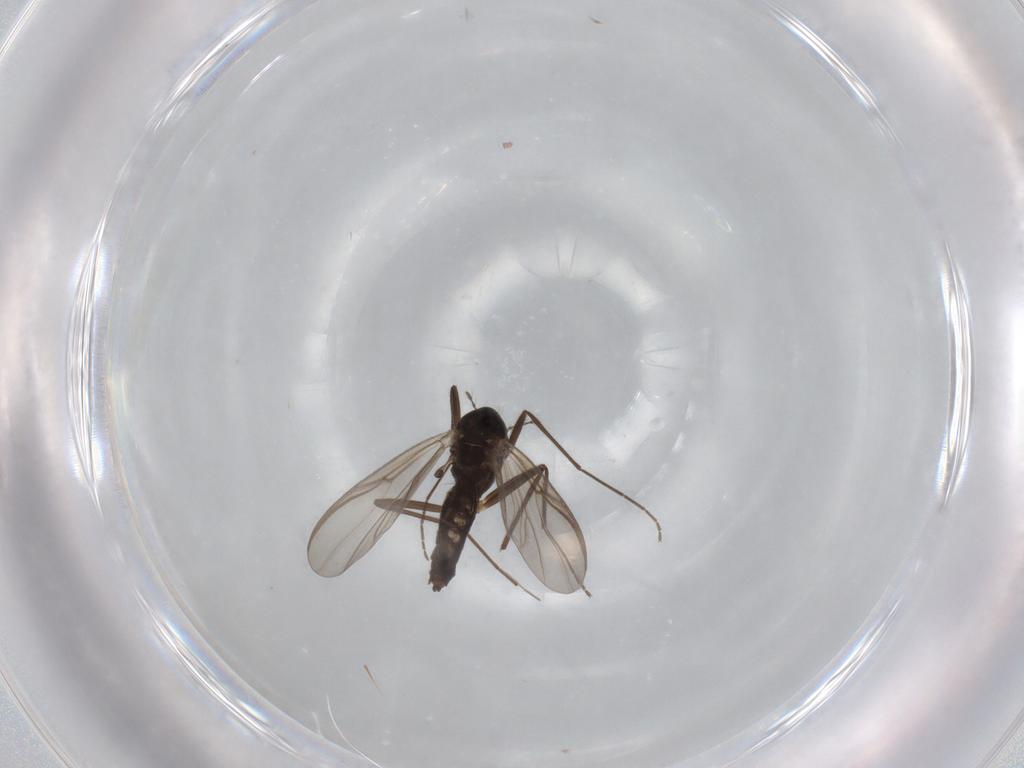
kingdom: Animalia
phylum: Arthropoda
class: Insecta
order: Diptera
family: Chironomidae
